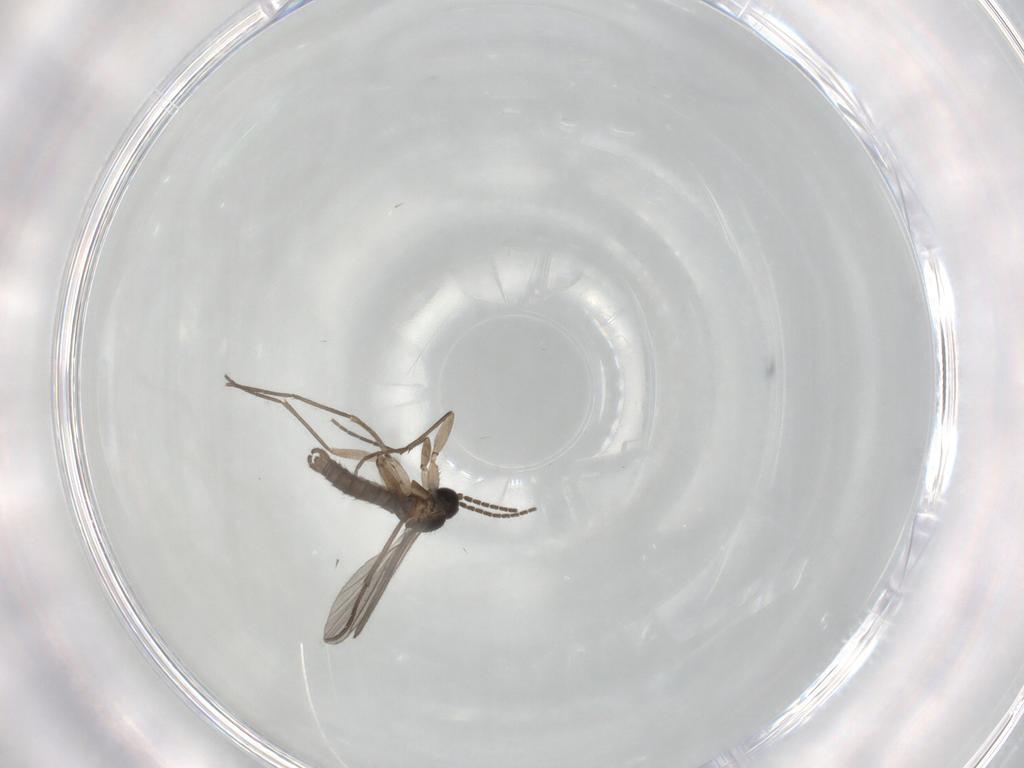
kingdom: Animalia
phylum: Arthropoda
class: Insecta
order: Diptera
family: Sciaridae
